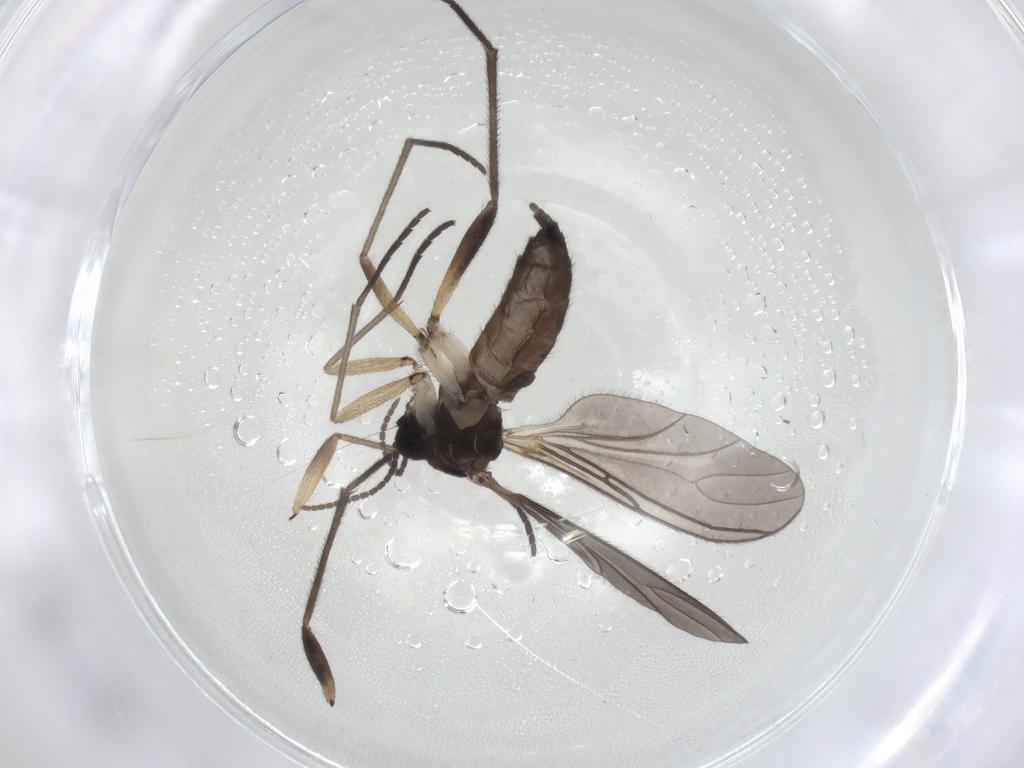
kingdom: Animalia
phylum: Arthropoda
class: Insecta
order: Diptera
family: Sciaridae
